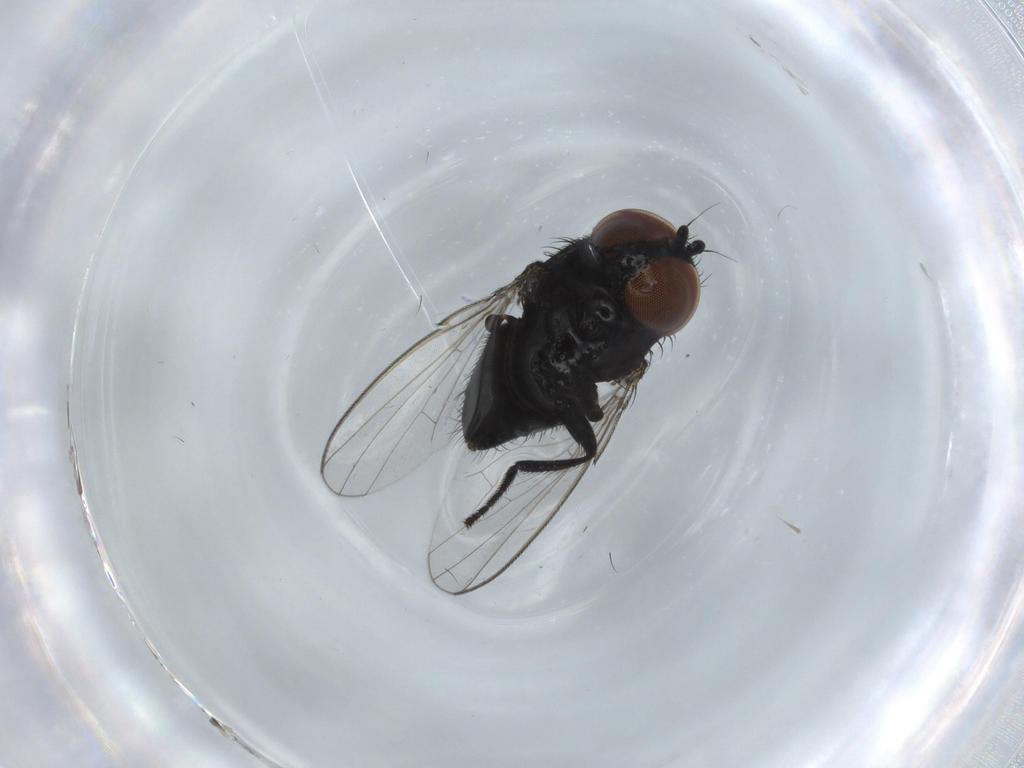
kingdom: Animalia
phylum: Arthropoda
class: Insecta
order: Diptera
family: Milichiidae
